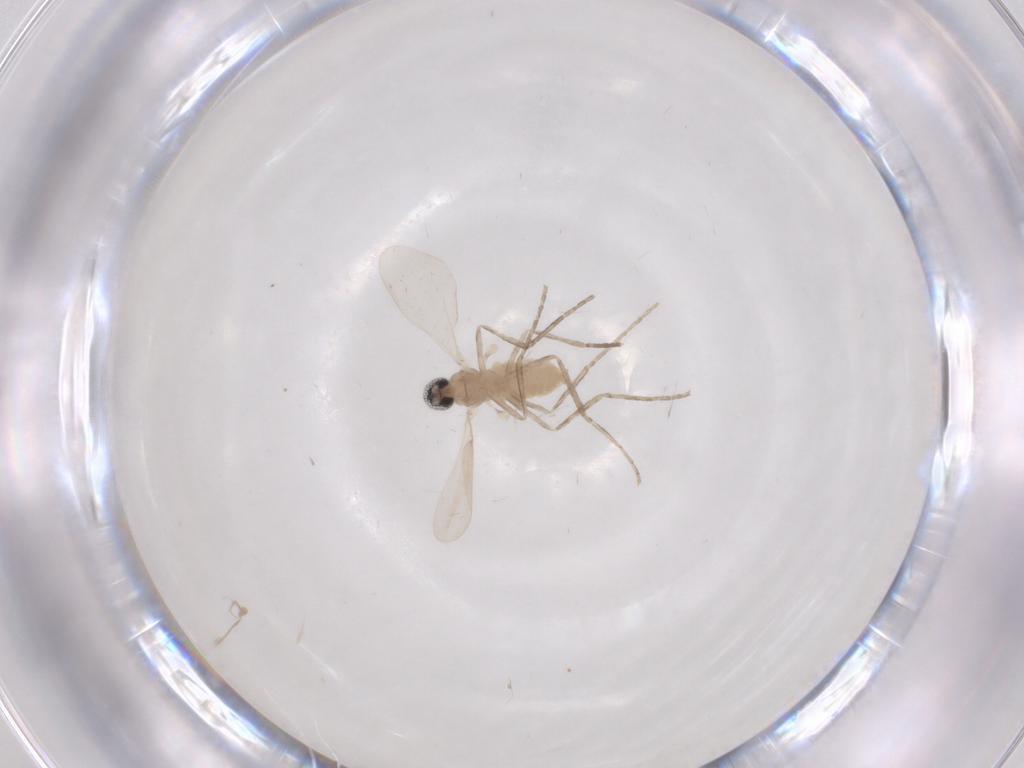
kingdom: Animalia
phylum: Arthropoda
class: Insecta
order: Diptera
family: Cecidomyiidae
